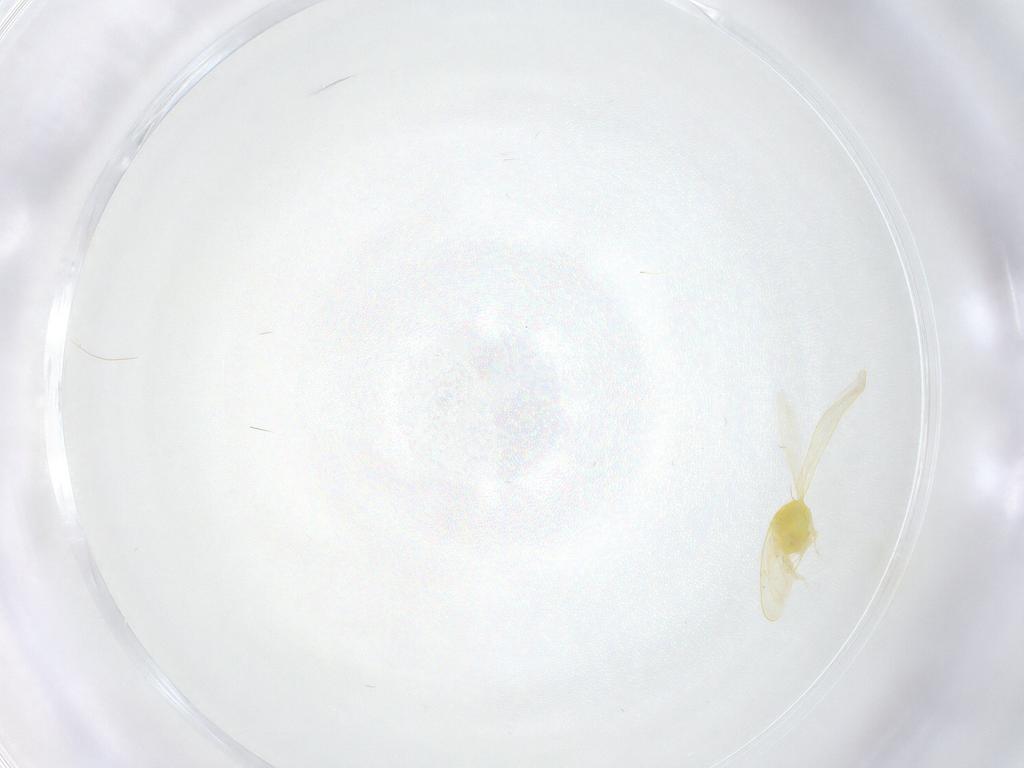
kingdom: Animalia
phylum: Arthropoda
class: Insecta
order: Hemiptera
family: Aleyrodidae
